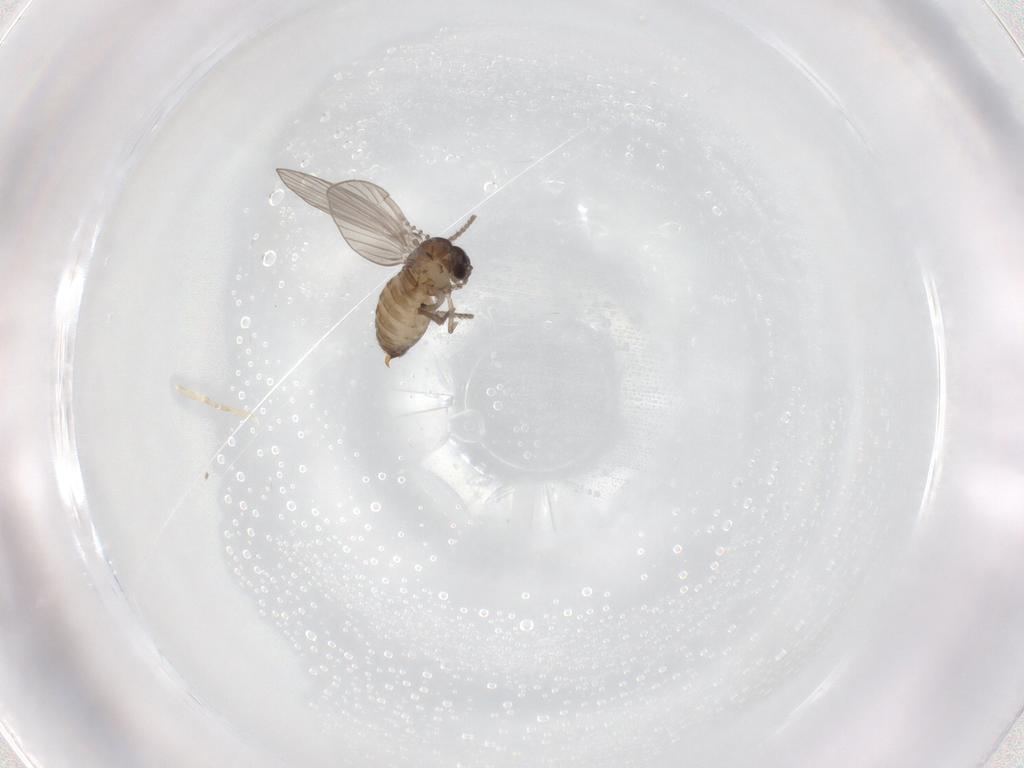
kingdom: Animalia
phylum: Arthropoda
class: Insecta
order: Diptera
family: Psychodidae
